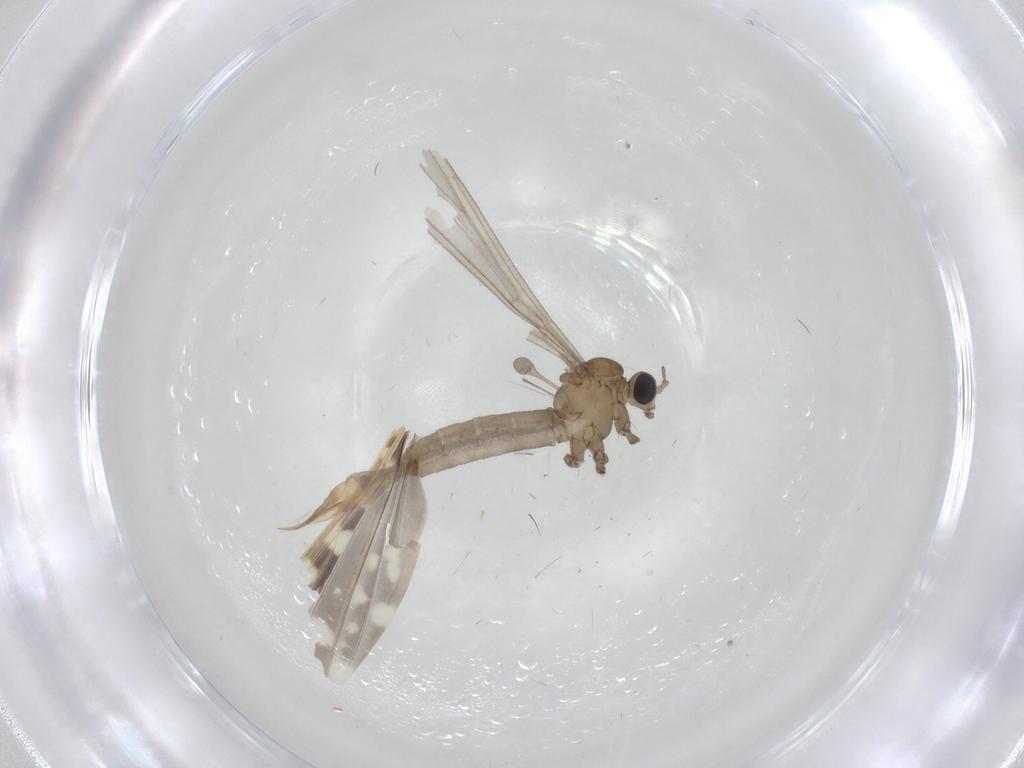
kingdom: Animalia
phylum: Arthropoda
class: Insecta
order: Diptera
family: Limoniidae
